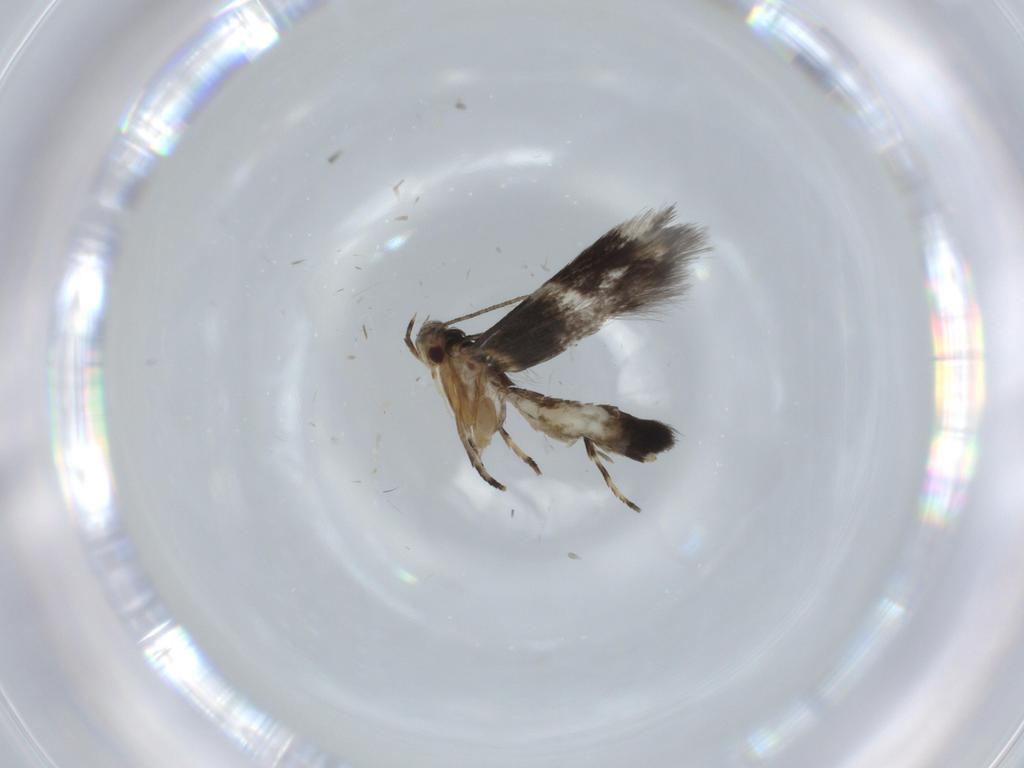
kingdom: Animalia
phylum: Arthropoda
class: Insecta
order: Lepidoptera
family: Cosmopterigidae
